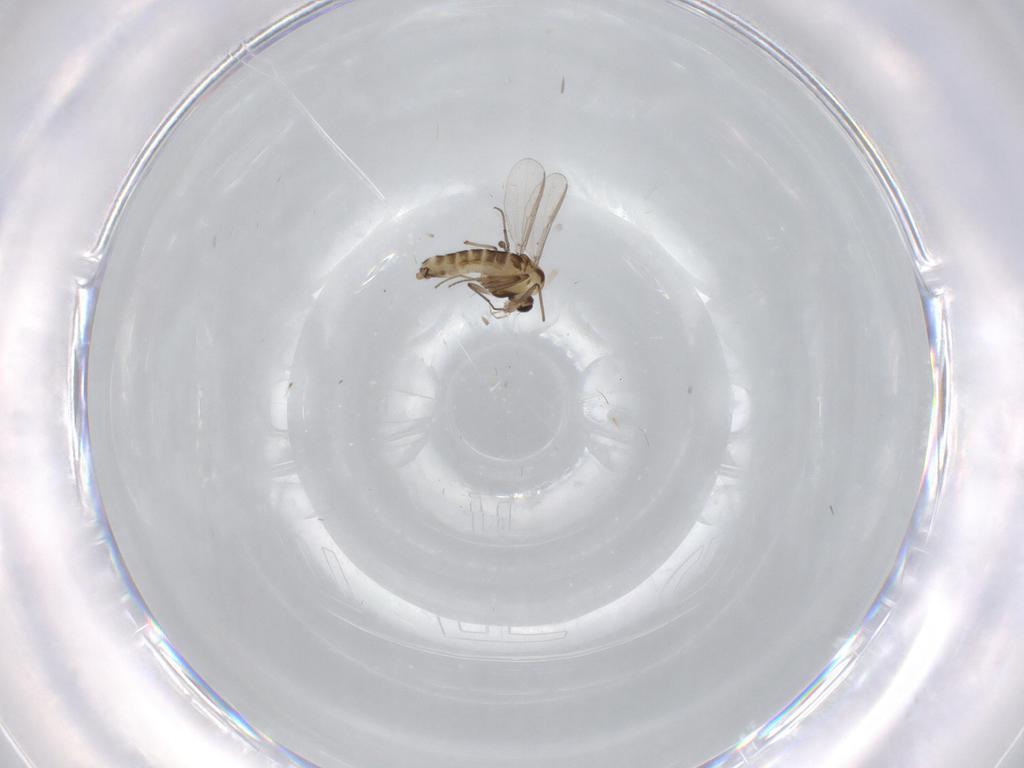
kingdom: Animalia
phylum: Arthropoda
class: Insecta
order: Diptera
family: Chironomidae
